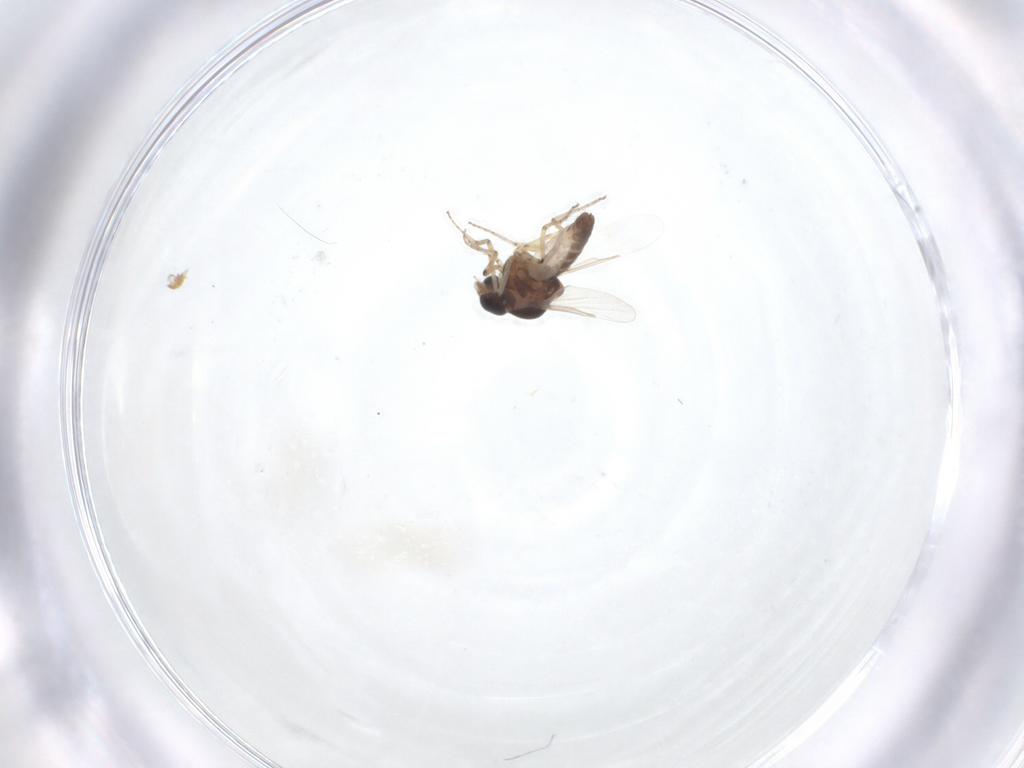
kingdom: Animalia
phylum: Arthropoda
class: Insecta
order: Diptera
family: Ceratopogonidae
